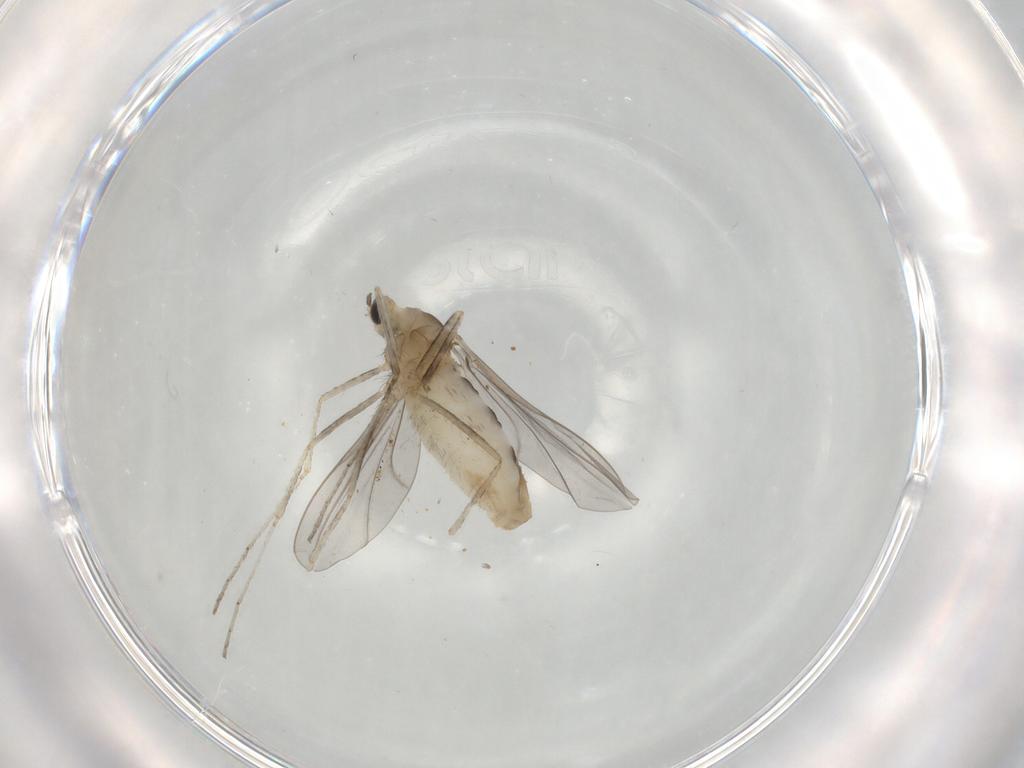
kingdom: Animalia
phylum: Arthropoda
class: Insecta
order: Diptera
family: Cecidomyiidae
